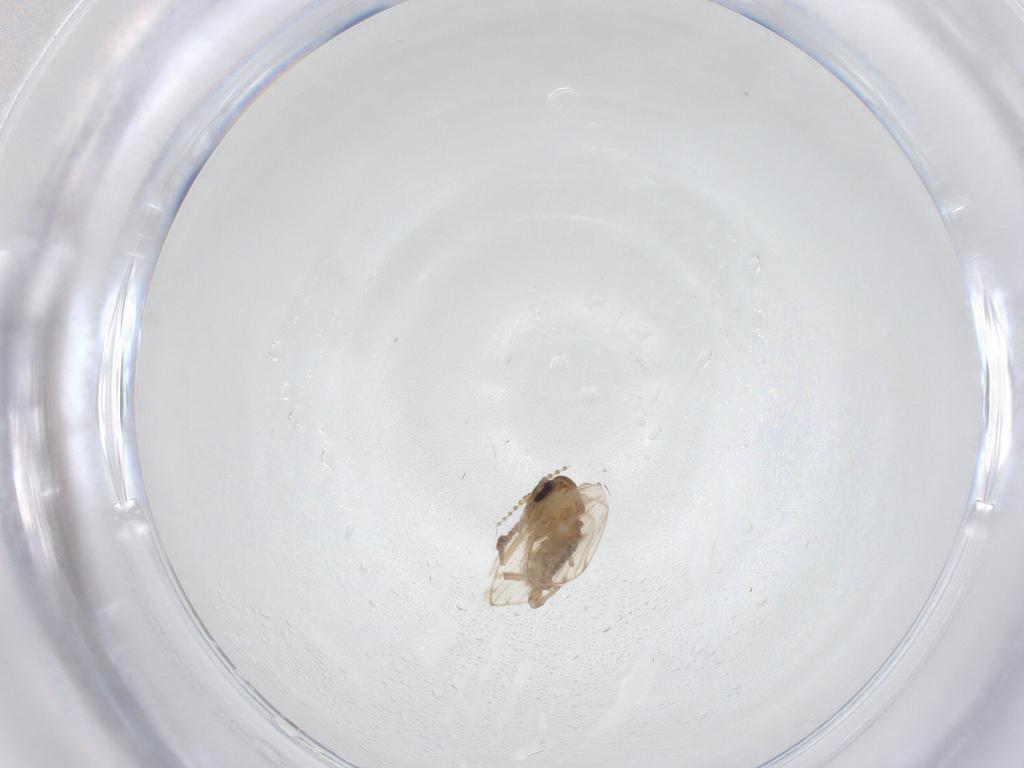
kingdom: Animalia
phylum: Arthropoda
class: Insecta
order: Diptera
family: Psychodidae
